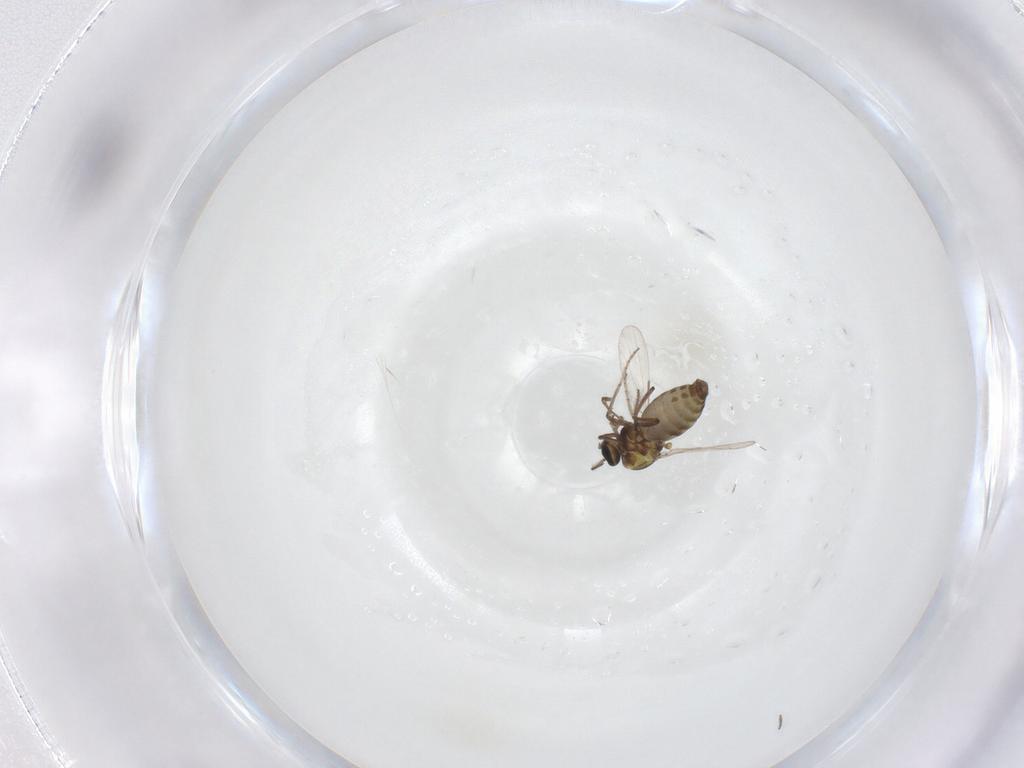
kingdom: Animalia
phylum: Arthropoda
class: Insecta
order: Diptera
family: Ceratopogonidae
